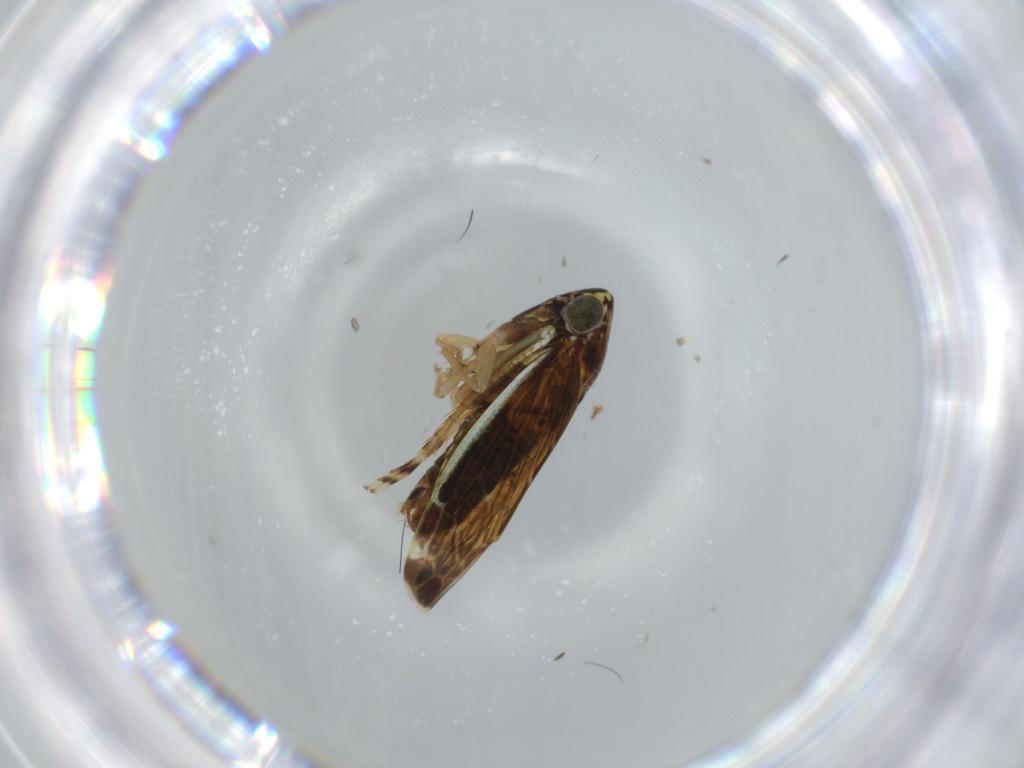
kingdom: Animalia
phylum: Arthropoda
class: Insecta
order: Hemiptera
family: Cicadellidae
